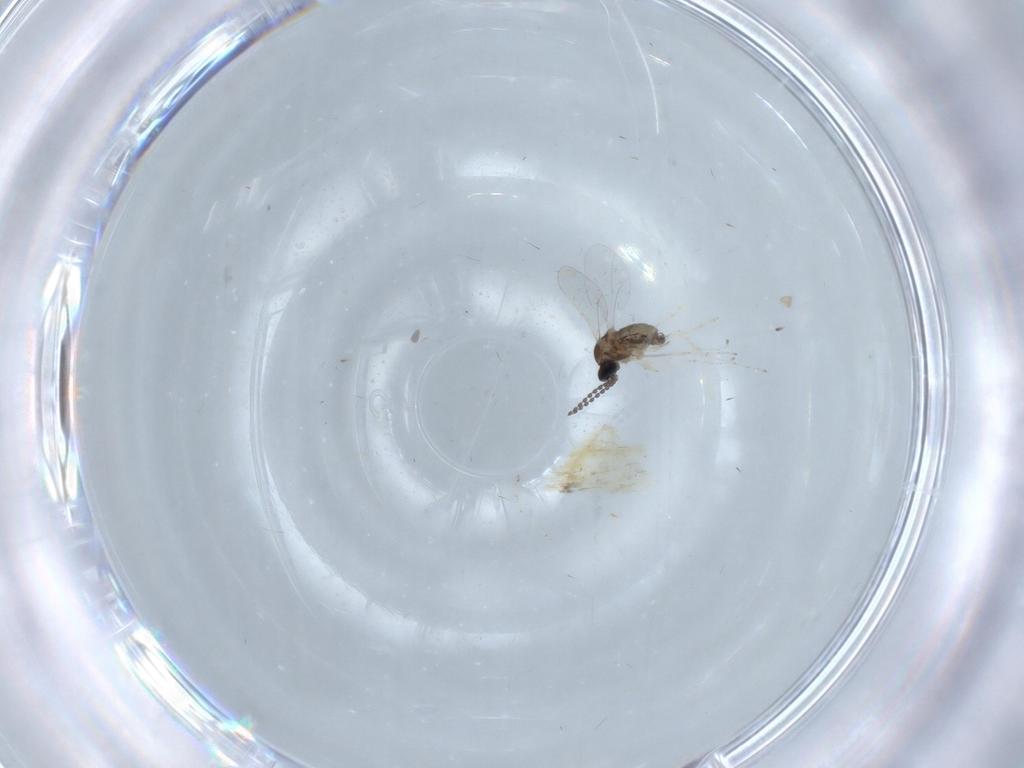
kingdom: Animalia
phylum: Arthropoda
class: Insecta
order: Diptera
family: Cecidomyiidae
